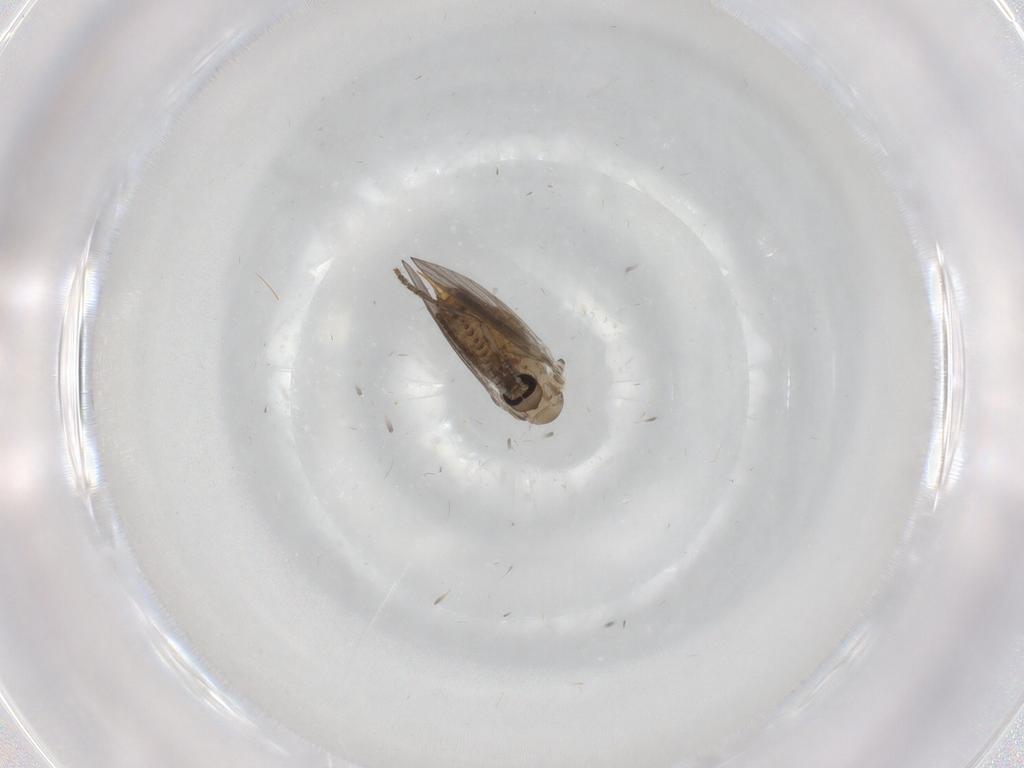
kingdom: Animalia
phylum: Arthropoda
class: Insecta
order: Diptera
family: Psychodidae
